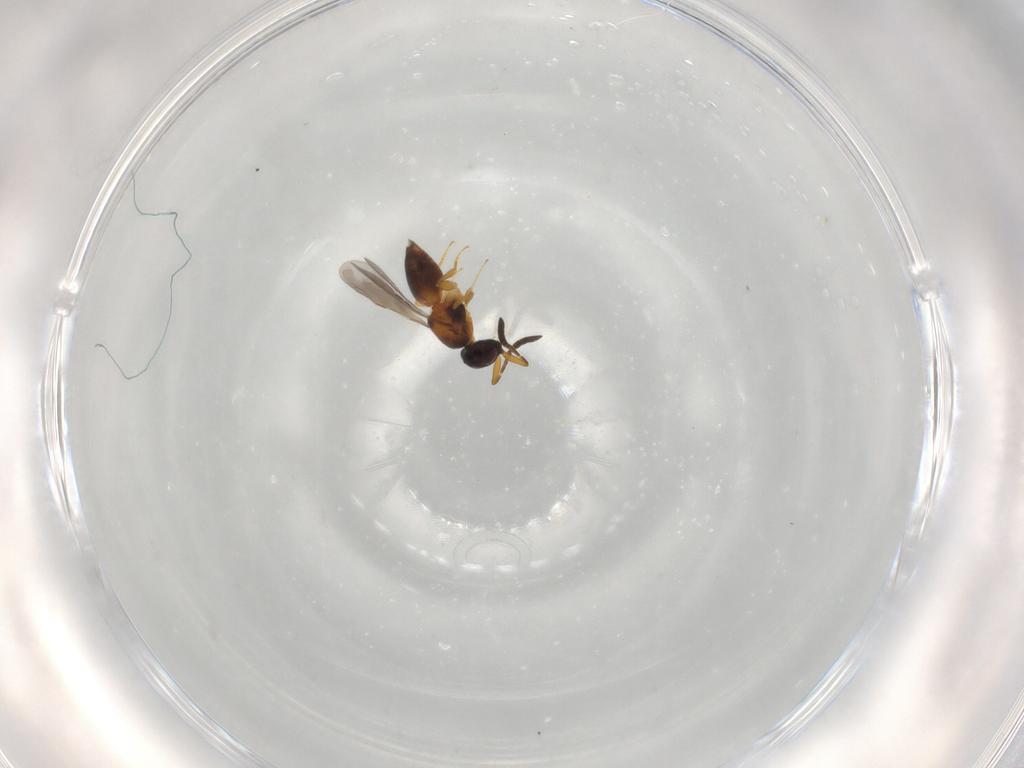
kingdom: Animalia
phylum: Arthropoda
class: Insecta
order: Hymenoptera
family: Ceraphronidae
